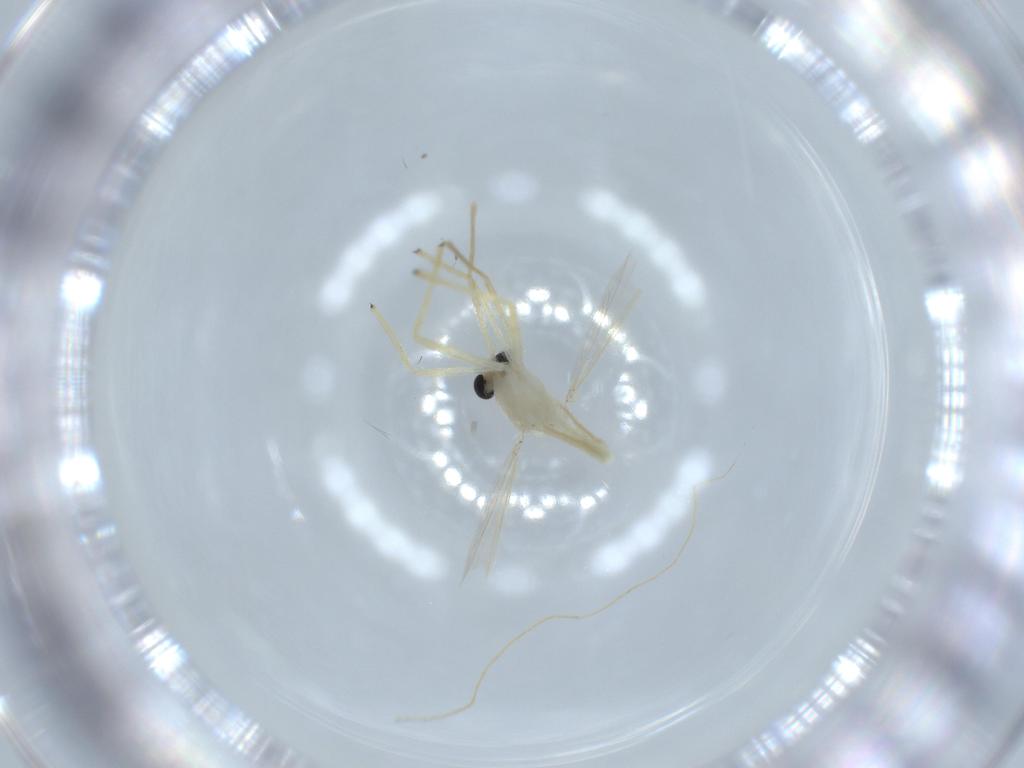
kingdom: Animalia
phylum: Arthropoda
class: Insecta
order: Diptera
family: Chironomidae
